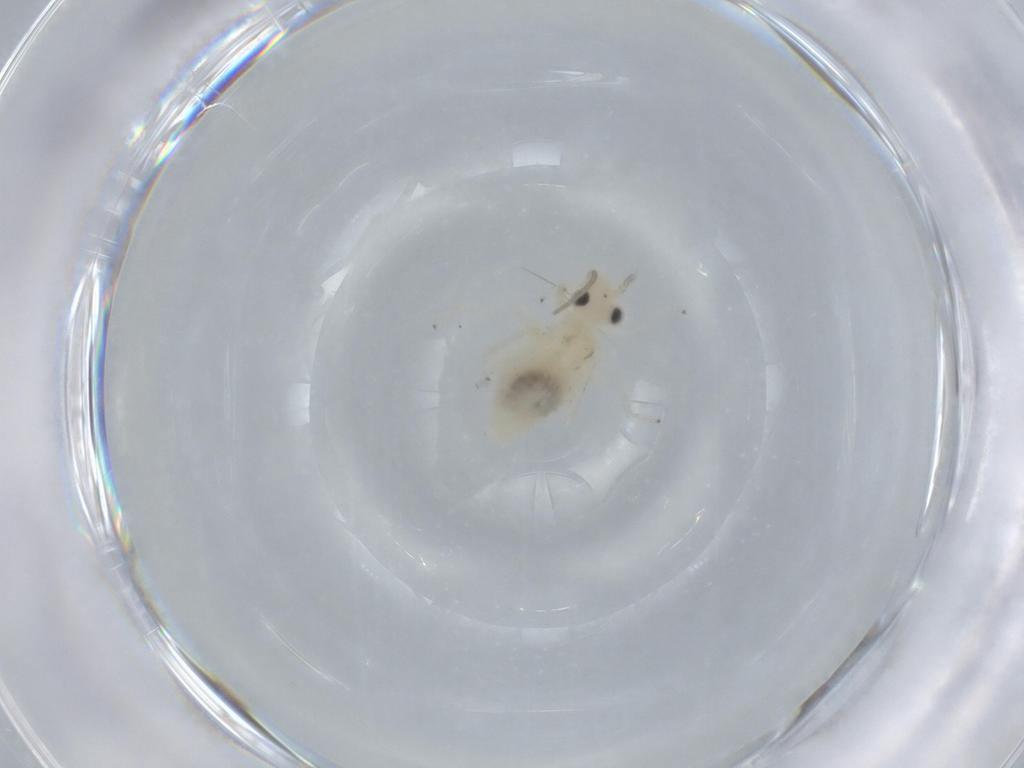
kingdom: Animalia
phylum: Arthropoda
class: Insecta
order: Psocodea
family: Caeciliusidae
